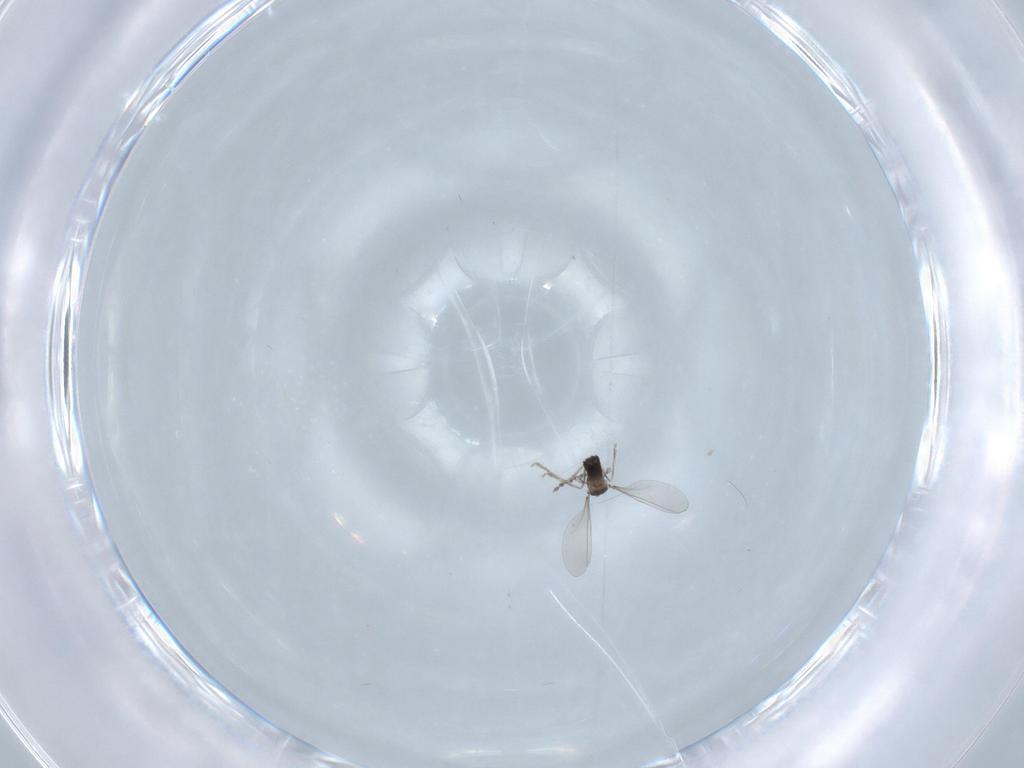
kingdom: Animalia
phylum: Arthropoda
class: Insecta
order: Diptera
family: Cecidomyiidae
